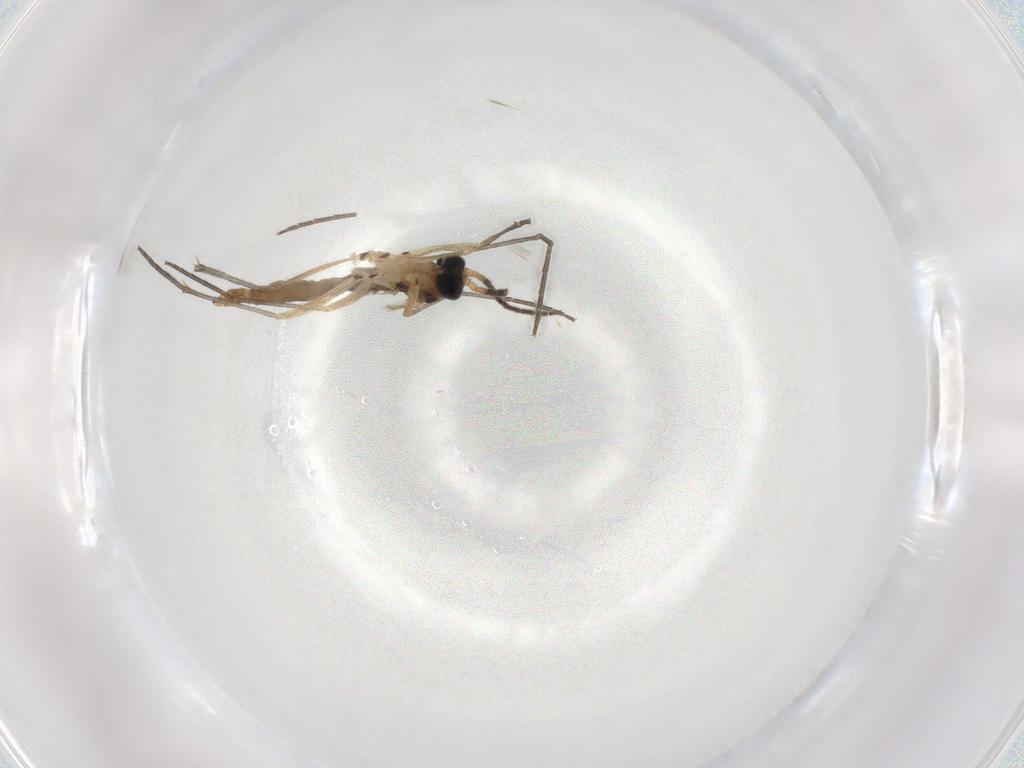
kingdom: Animalia
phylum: Arthropoda
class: Insecta
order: Diptera
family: Sciaridae
